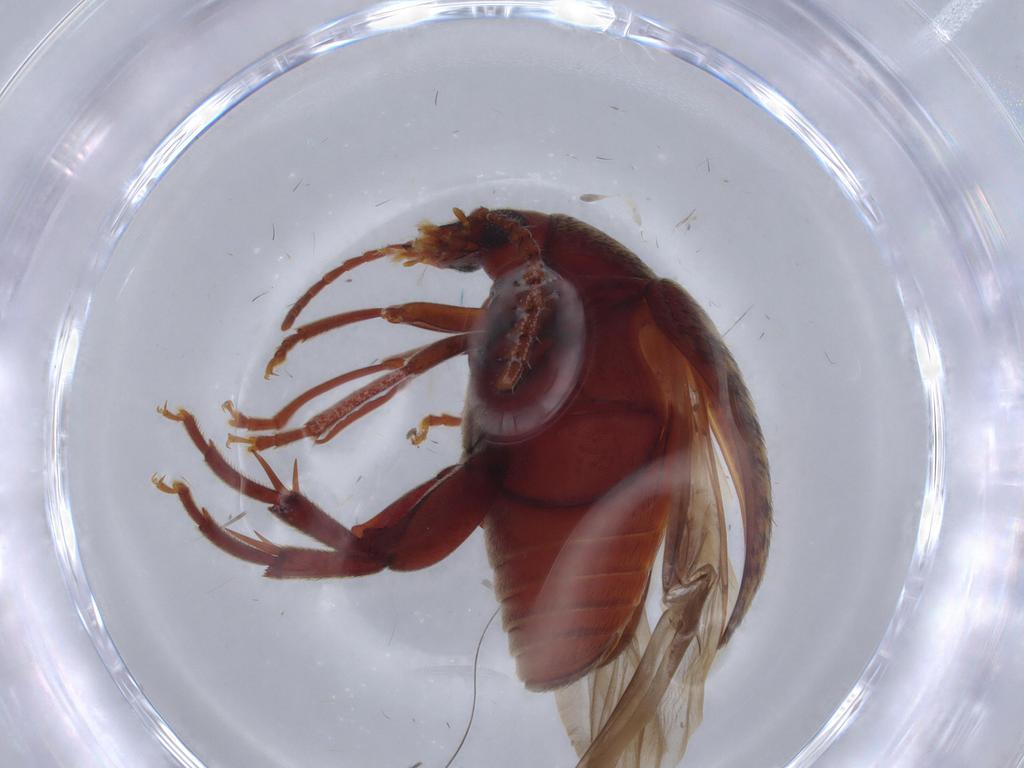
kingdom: Animalia
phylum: Arthropoda
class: Insecta
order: Coleoptera
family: Chrysomelidae
